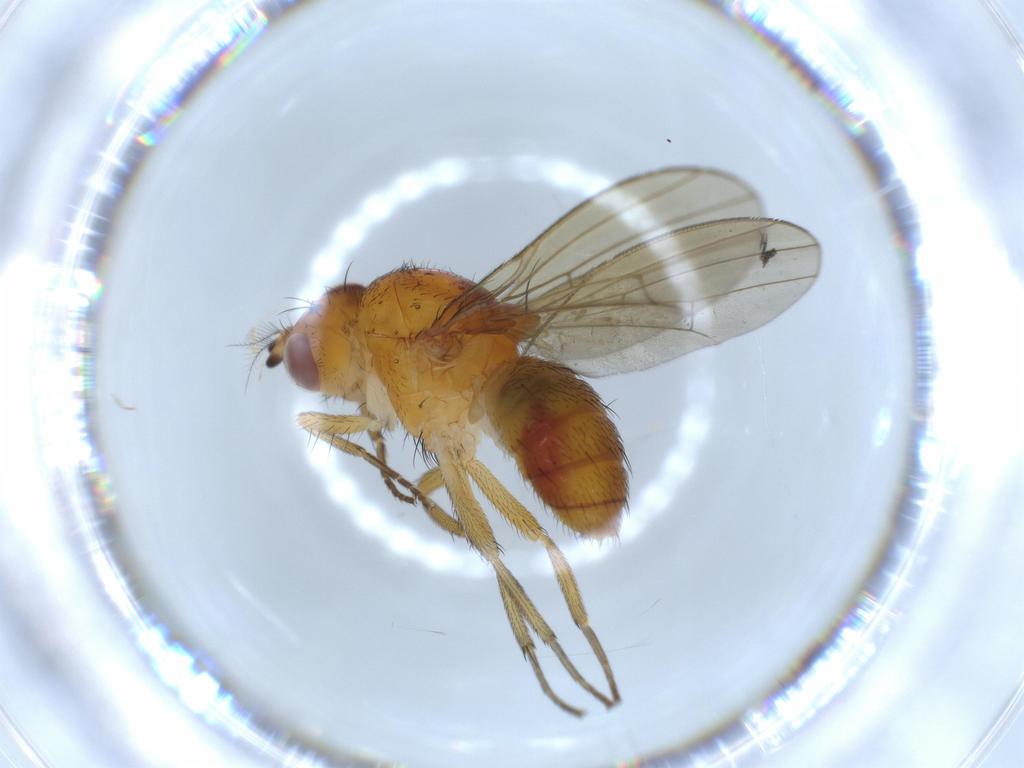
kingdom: Animalia
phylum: Arthropoda
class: Insecta
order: Diptera
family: Lauxaniidae
